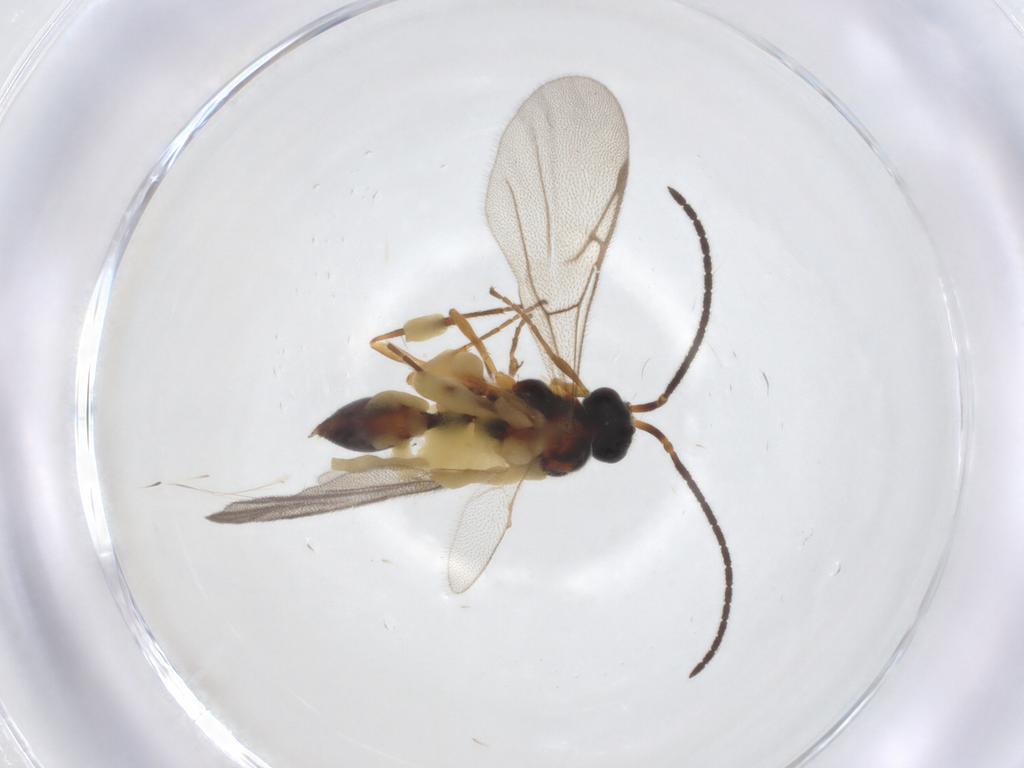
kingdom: Animalia
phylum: Arthropoda
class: Insecta
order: Hymenoptera
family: Diapriidae
